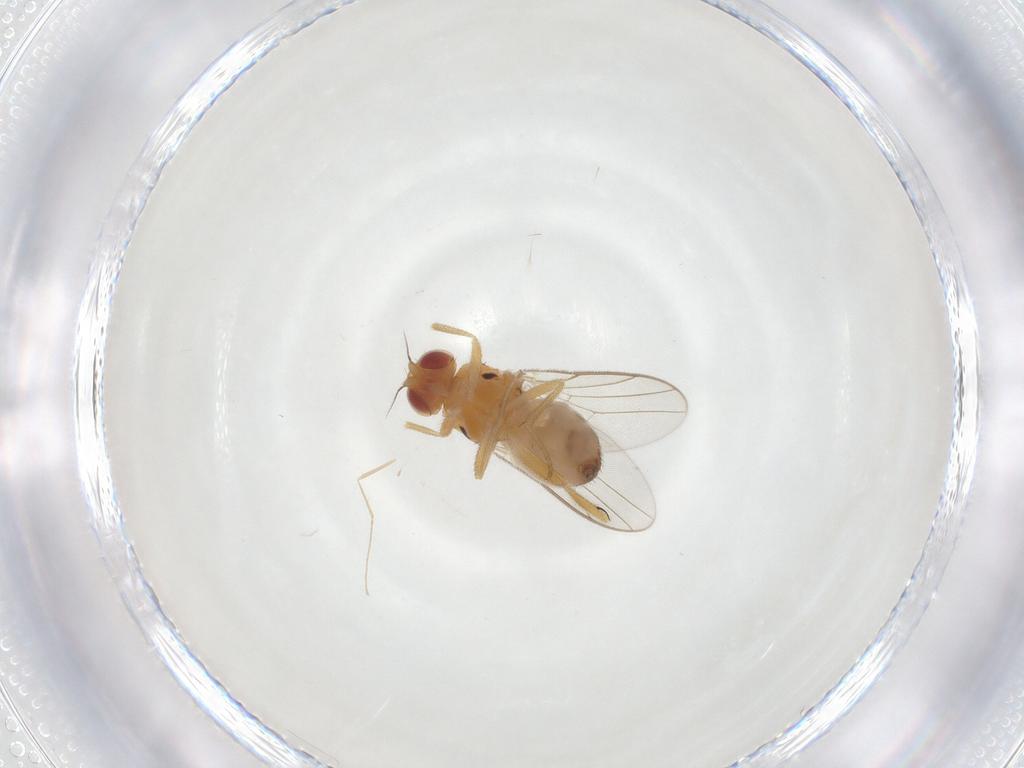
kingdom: Animalia
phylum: Arthropoda
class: Insecta
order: Diptera
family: Chloropidae
